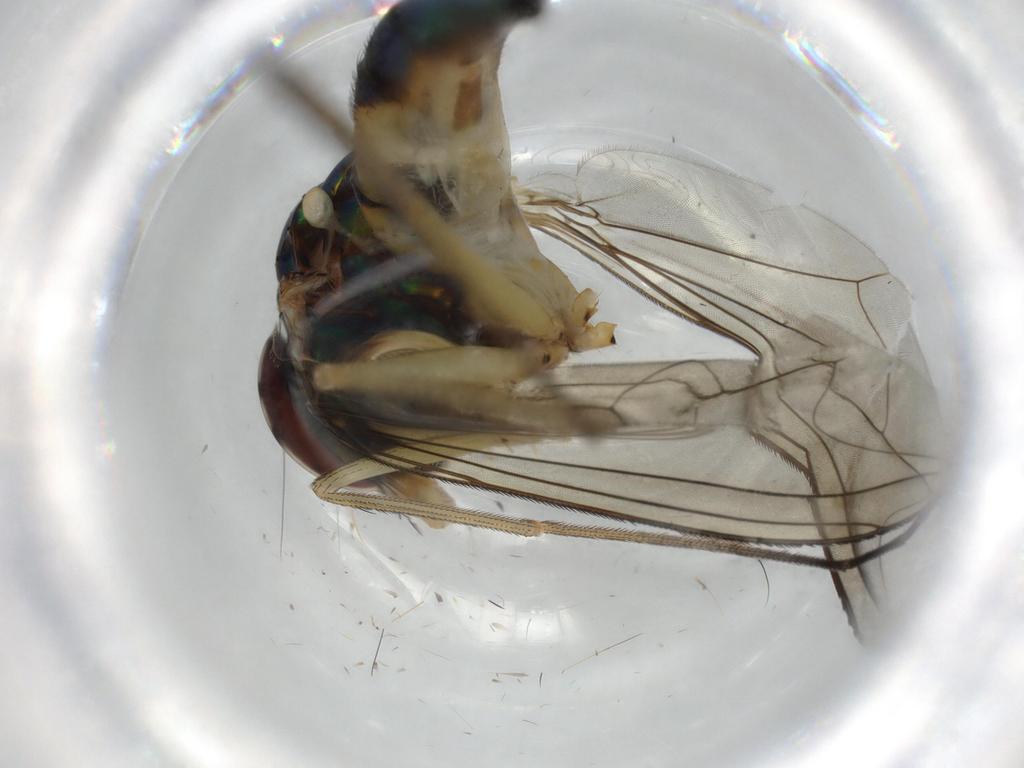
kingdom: Animalia
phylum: Arthropoda
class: Insecta
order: Diptera
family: Dolichopodidae
